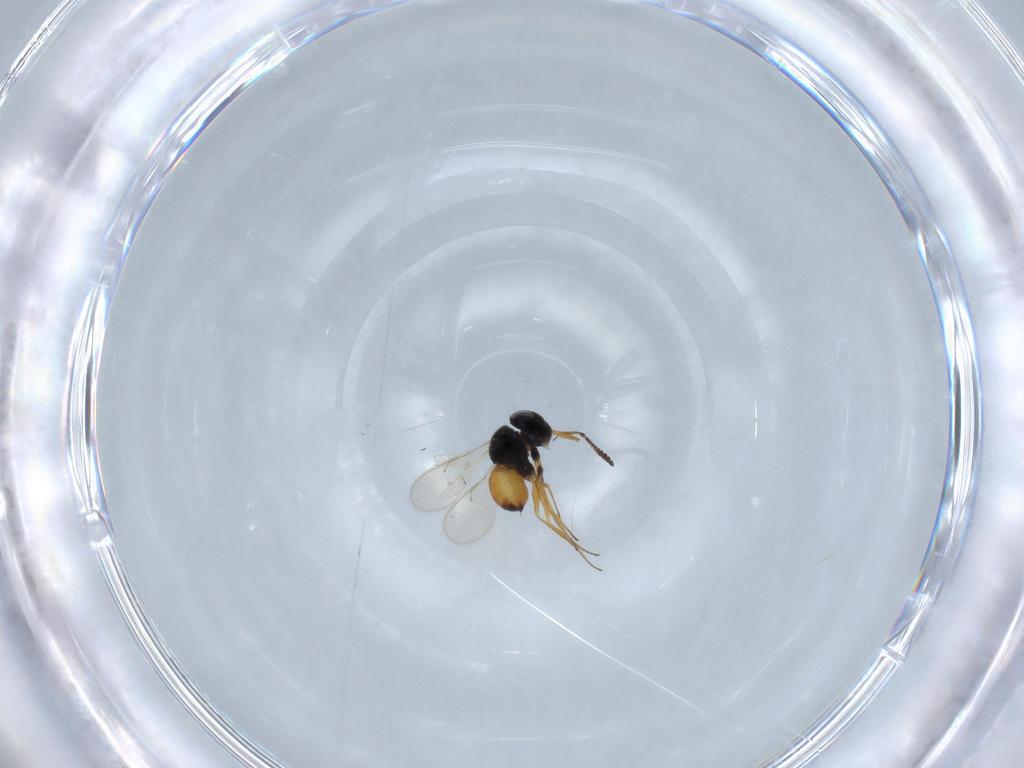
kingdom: Animalia
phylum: Arthropoda
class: Insecta
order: Hymenoptera
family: Scelionidae
